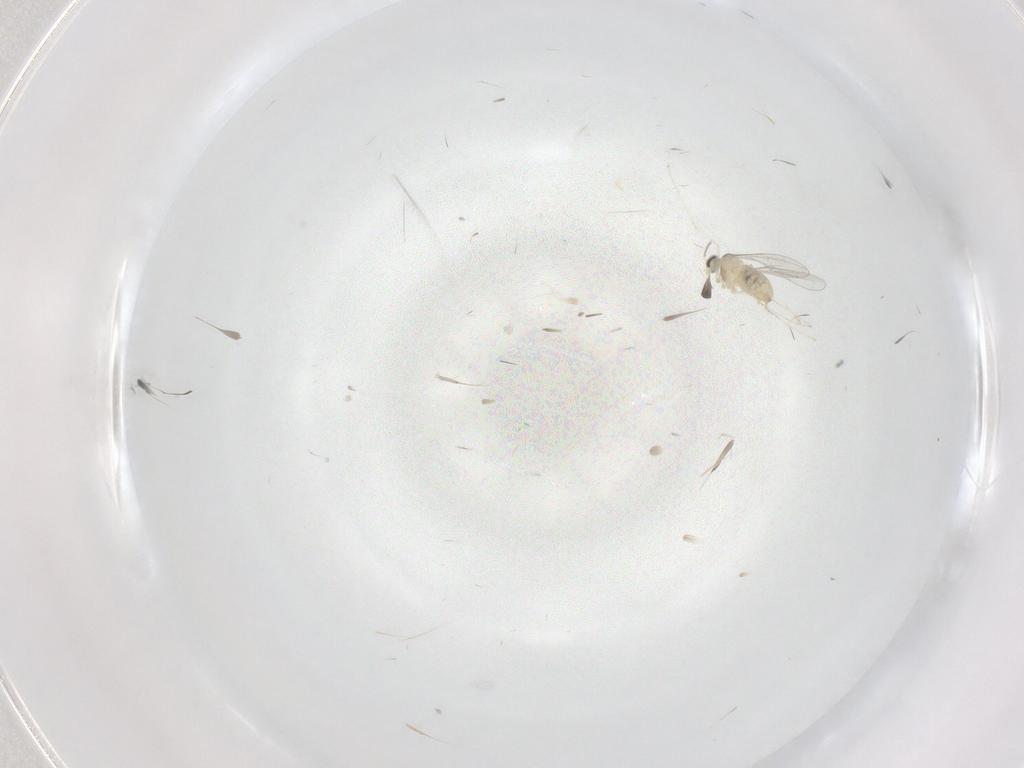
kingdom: Animalia
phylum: Arthropoda
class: Insecta
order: Diptera
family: Cecidomyiidae
